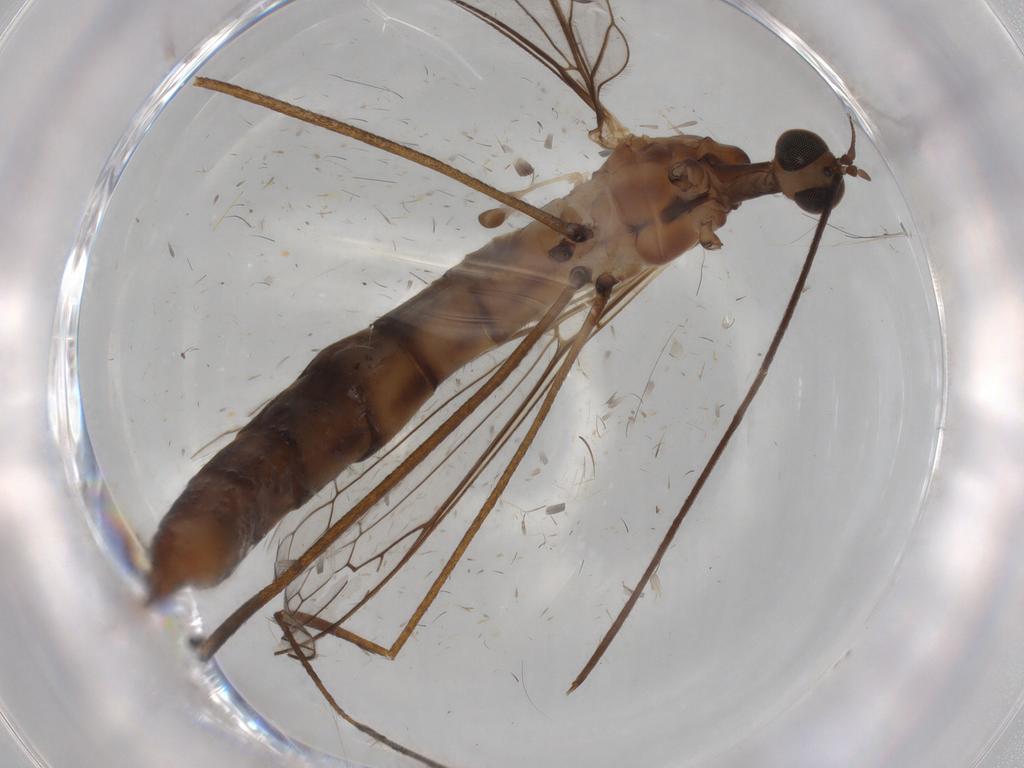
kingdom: Animalia
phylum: Arthropoda
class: Insecta
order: Diptera
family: Limoniidae
